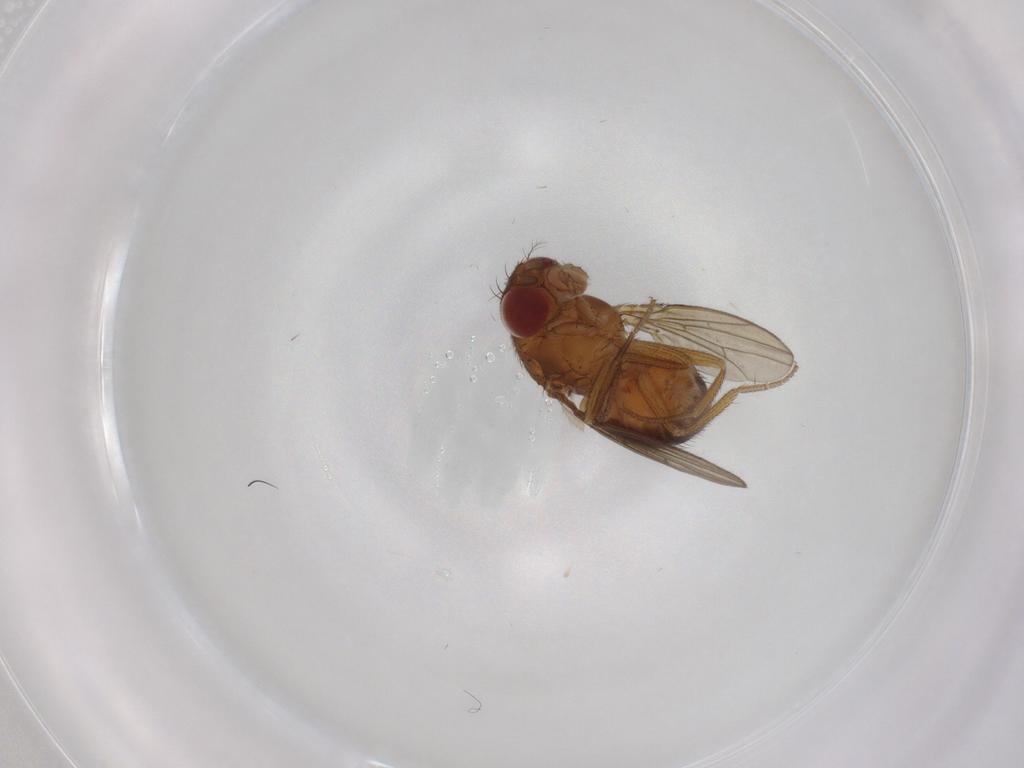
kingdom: Animalia
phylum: Arthropoda
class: Insecta
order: Diptera
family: Drosophilidae
